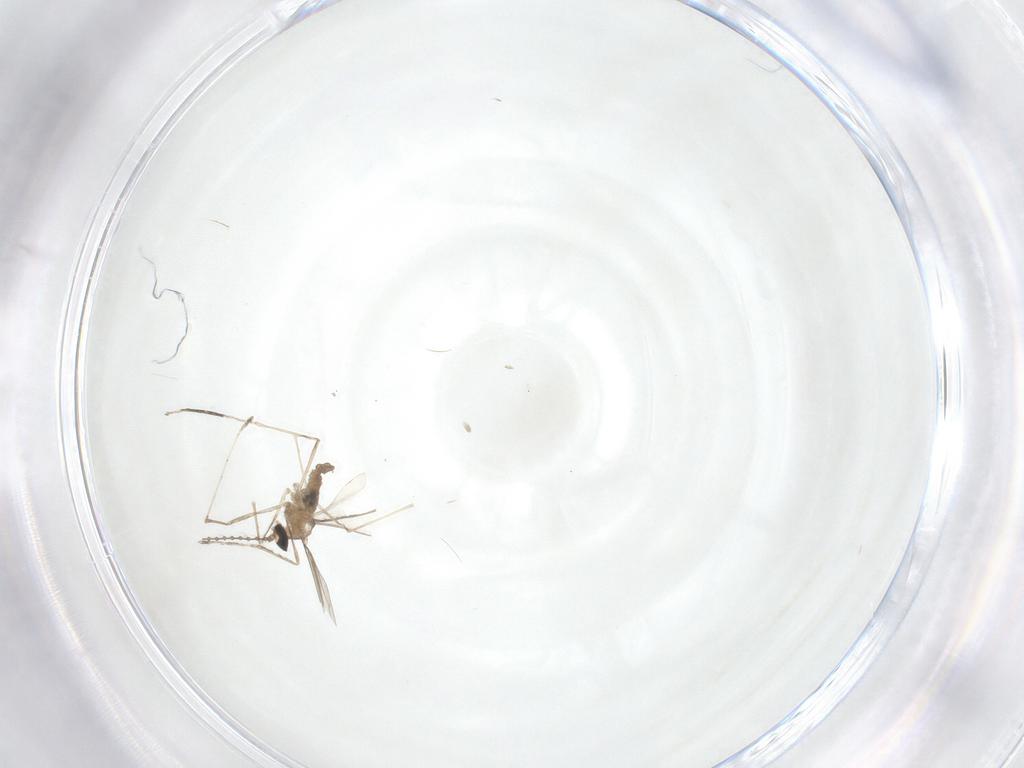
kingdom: Animalia
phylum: Arthropoda
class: Insecta
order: Diptera
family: Cecidomyiidae
